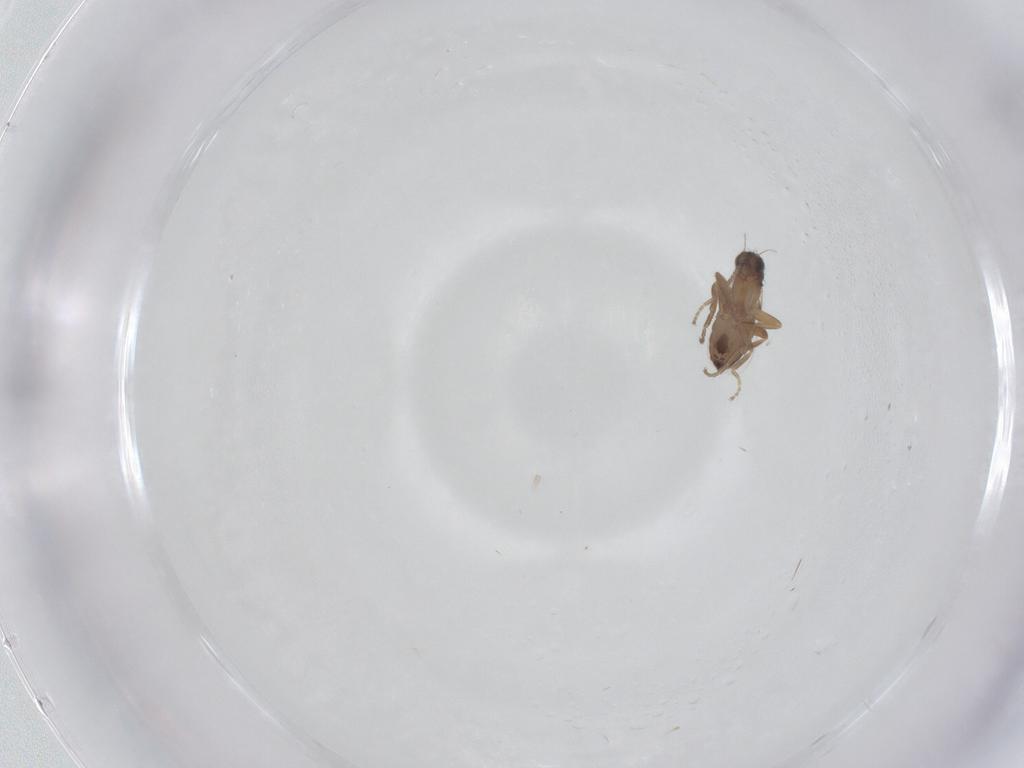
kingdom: Animalia
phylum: Arthropoda
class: Insecta
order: Diptera
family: Phoridae
